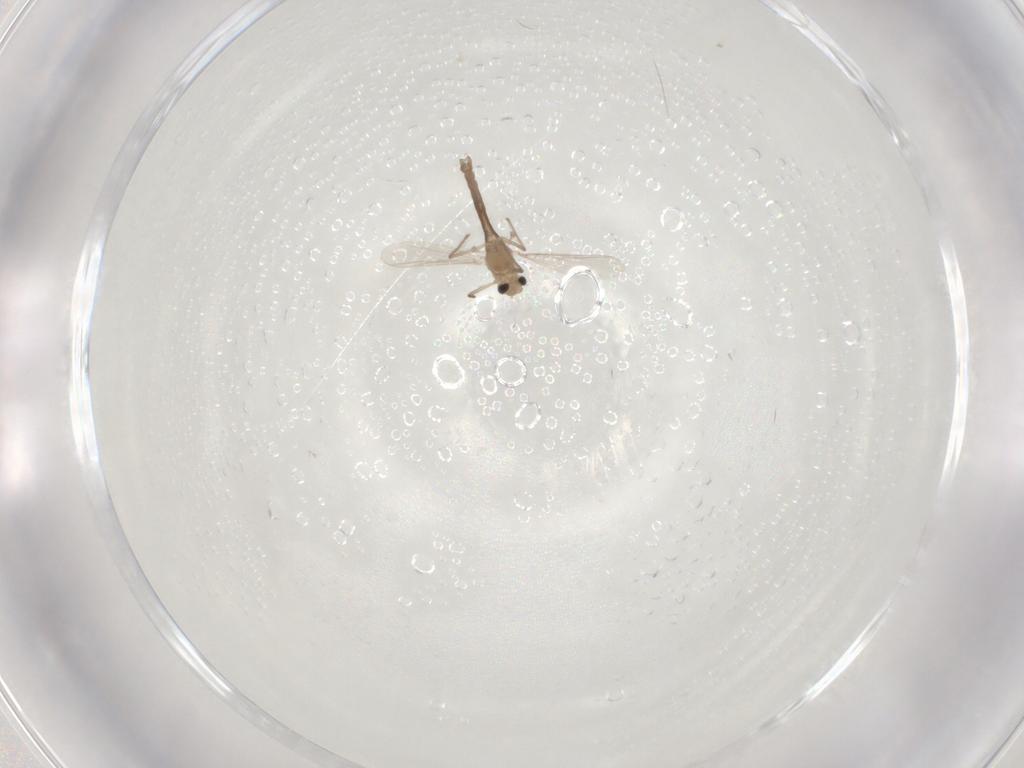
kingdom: Animalia
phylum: Arthropoda
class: Insecta
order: Diptera
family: Chironomidae
